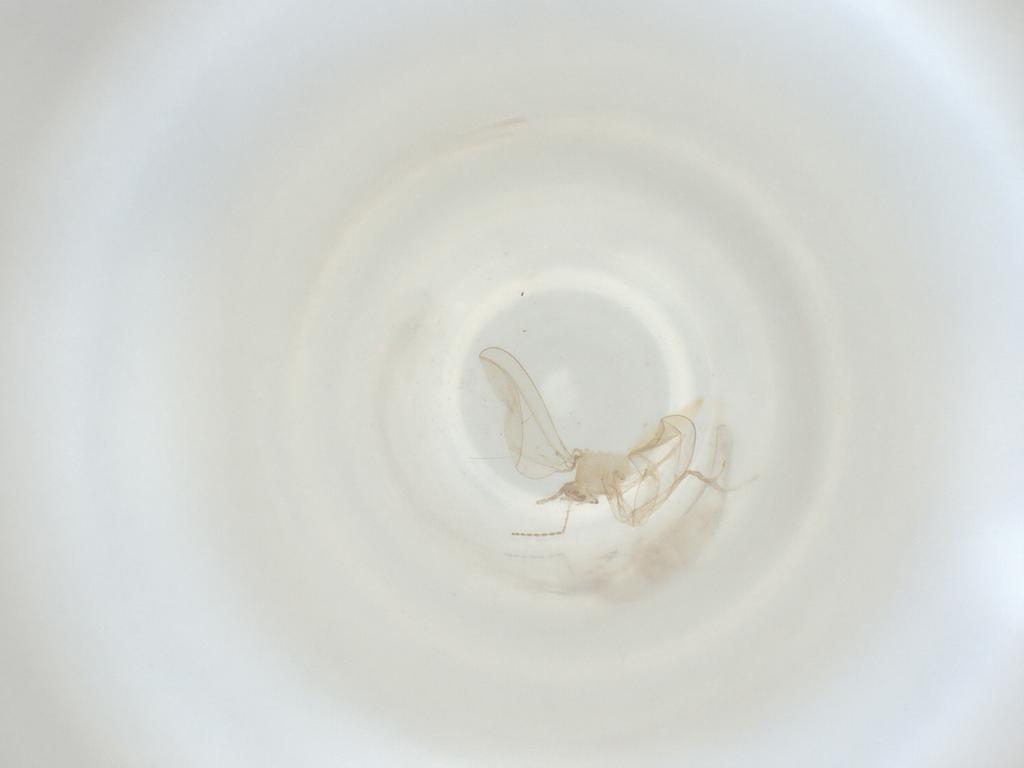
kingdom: Animalia
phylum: Arthropoda
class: Insecta
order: Diptera
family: Cecidomyiidae
